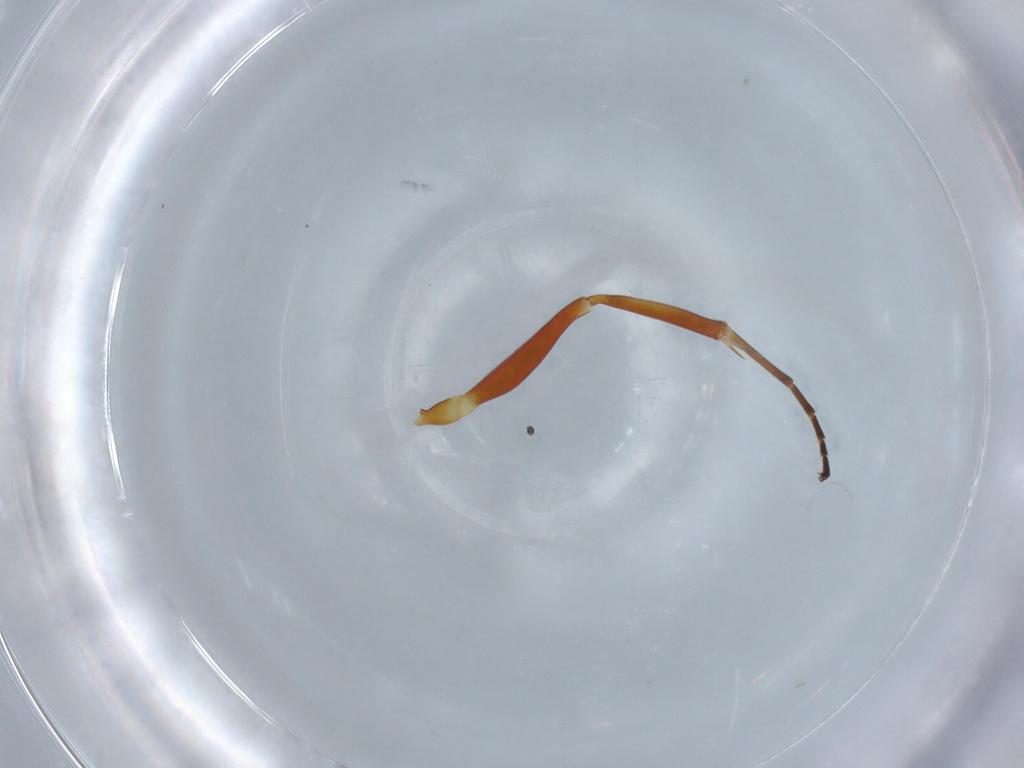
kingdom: Animalia
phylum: Arthropoda
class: Insecta
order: Hymenoptera
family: Ichneumonidae
